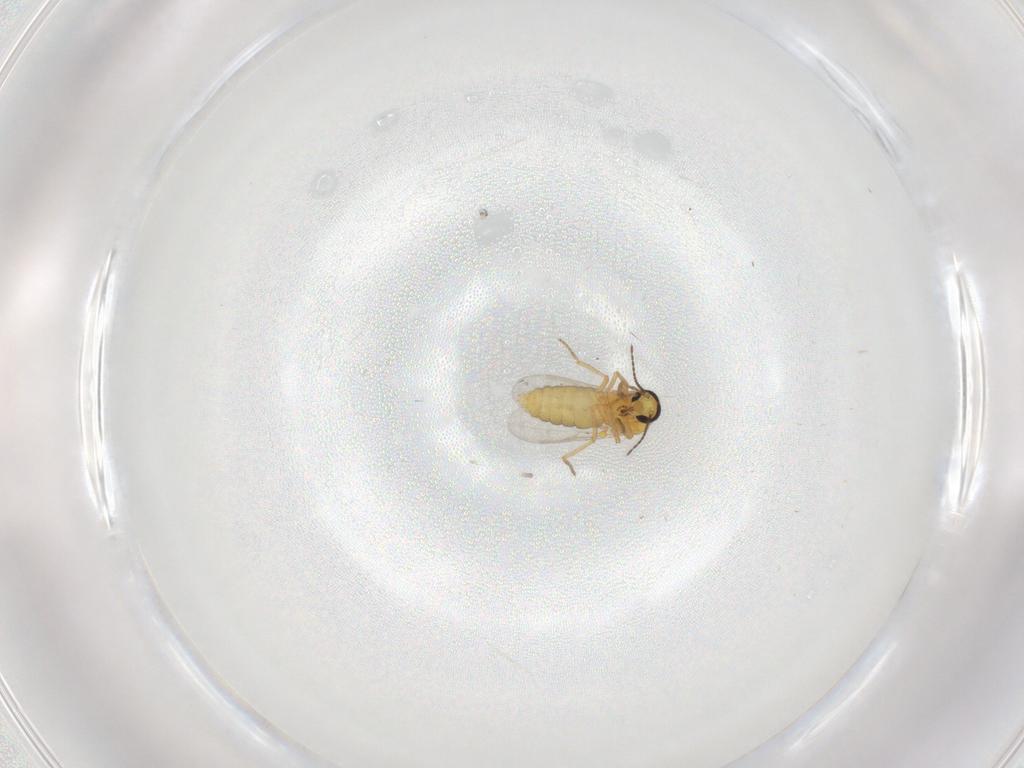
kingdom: Animalia
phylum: Arthropoda
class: Insecta
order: Diptera
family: Ceratopogonidae
